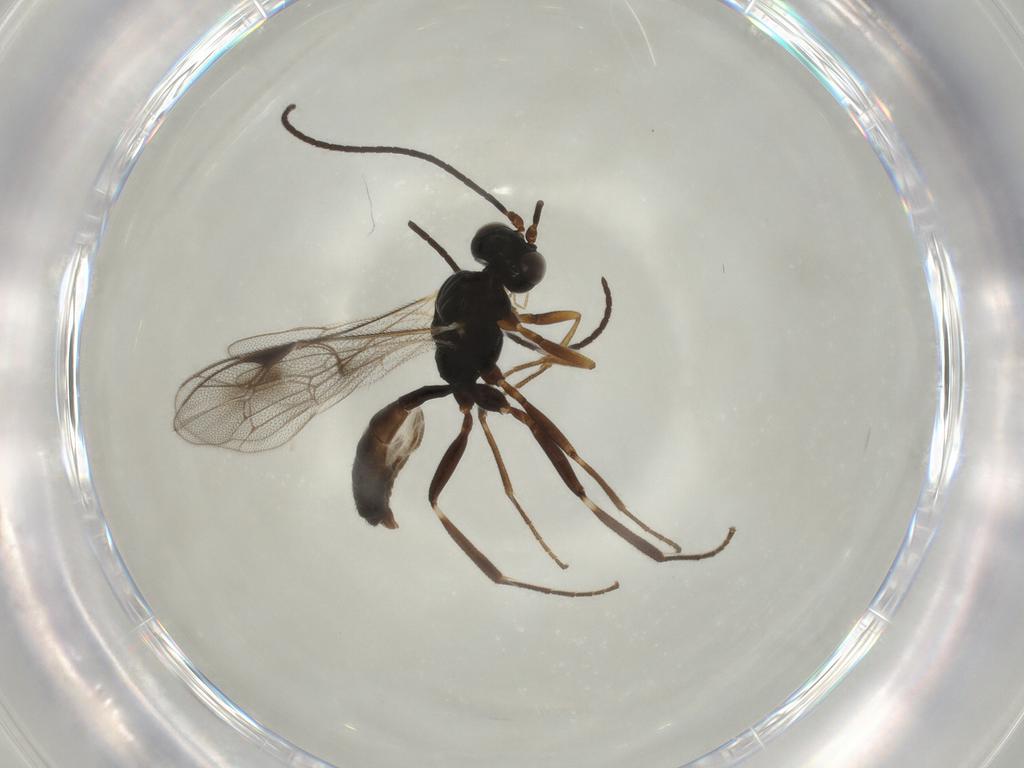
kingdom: Animalia
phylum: Arthropoda
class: Insecta
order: Hymenoptera
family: Ichneumonidae
